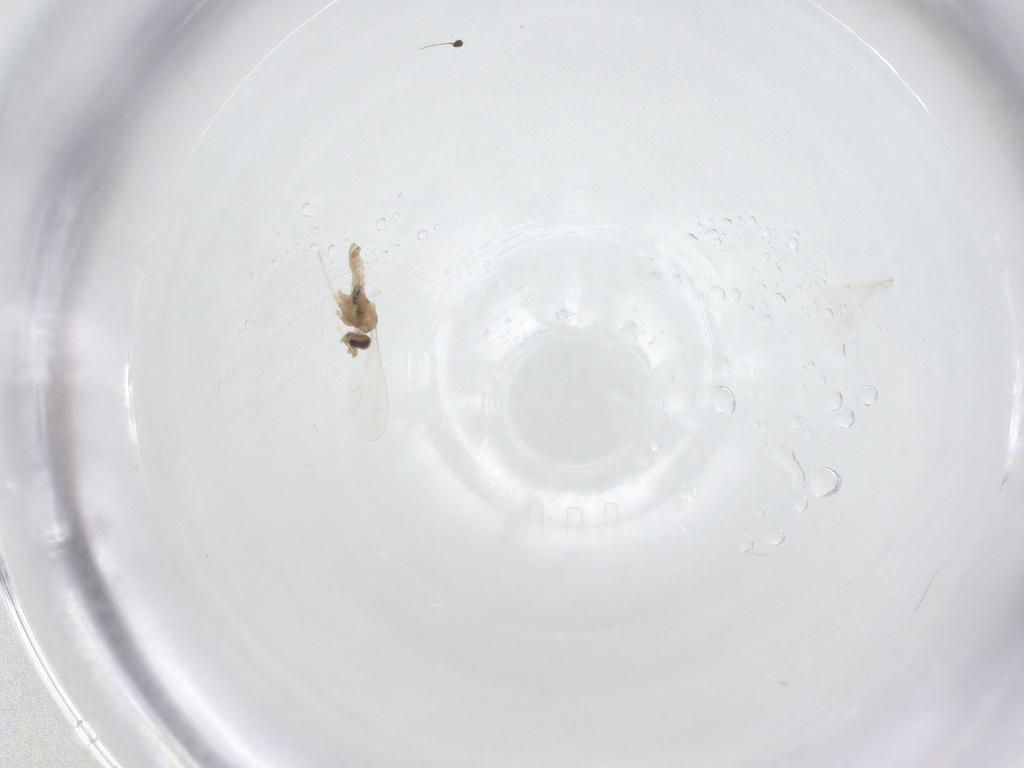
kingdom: Animalia
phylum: Arthropoda
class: Insecta
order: Diptera
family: Cecidomyiidae
